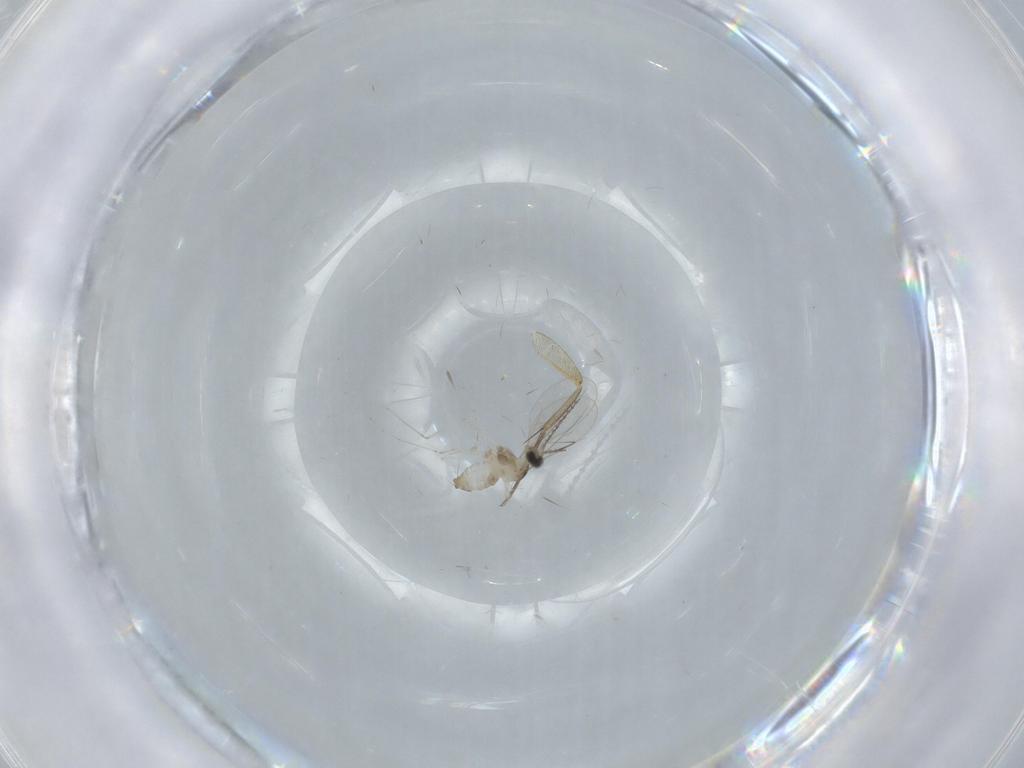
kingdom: Animalia
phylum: Arthropoda
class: Insecta
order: Diptera
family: Phoridae
